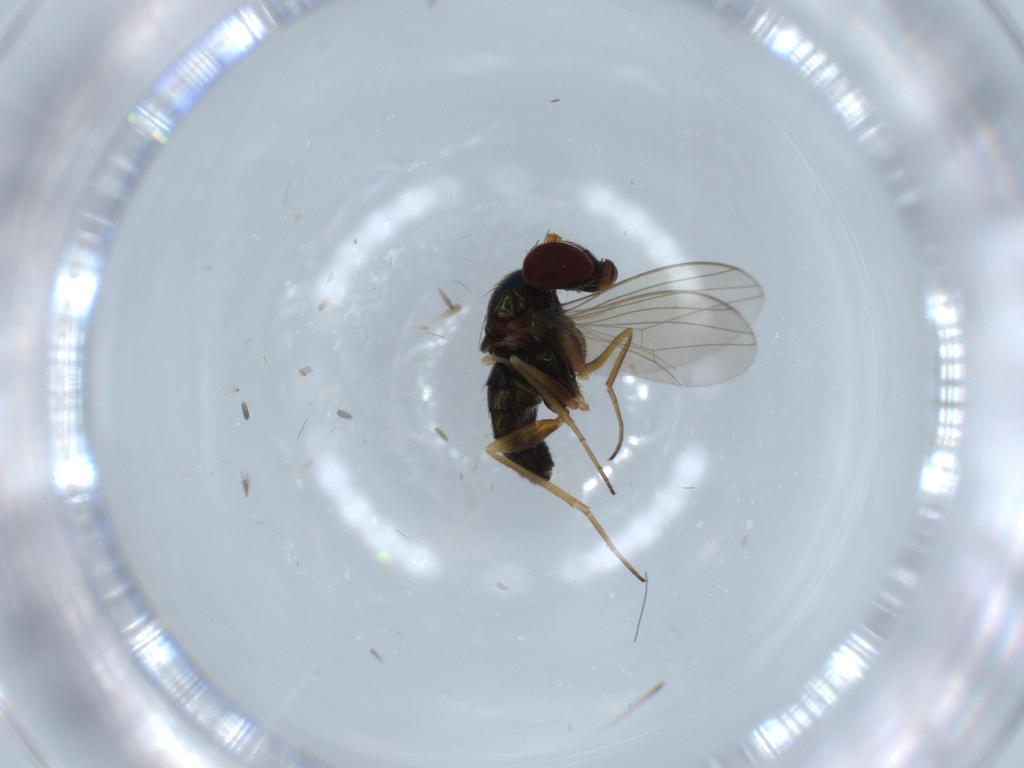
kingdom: Animalia
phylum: Arthropoda
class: Insecta
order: Diptera
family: Dolichopodidae
